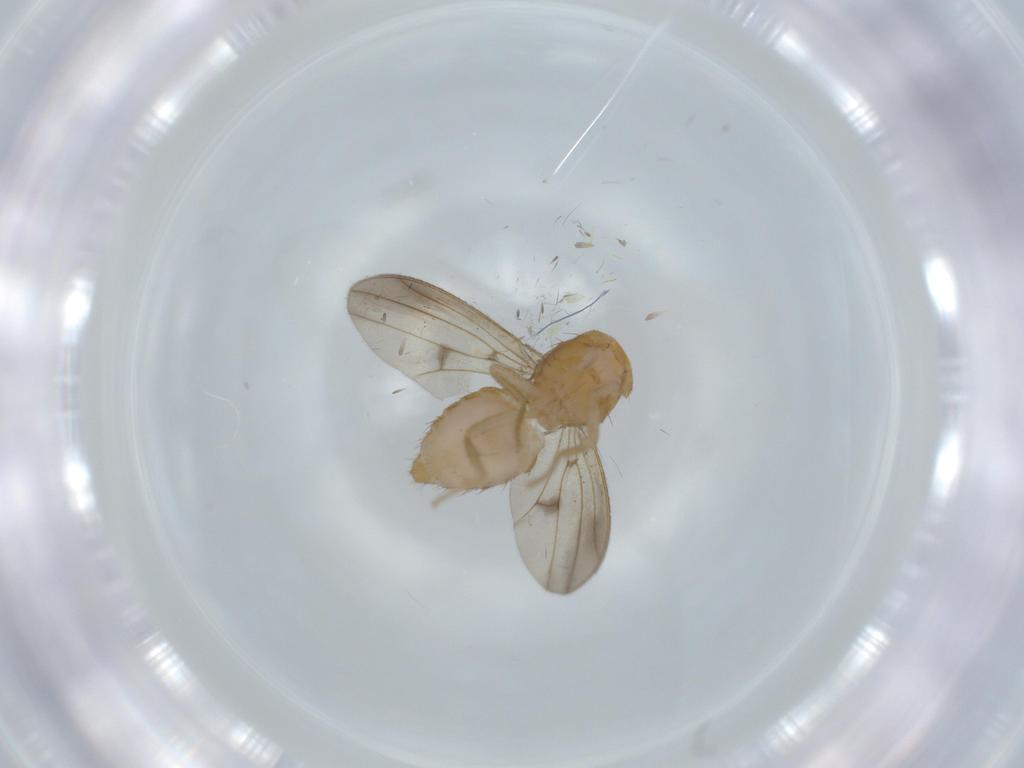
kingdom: Animalia
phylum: Arthropoda
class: Insecta
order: Diptera
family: Drosophilidae
